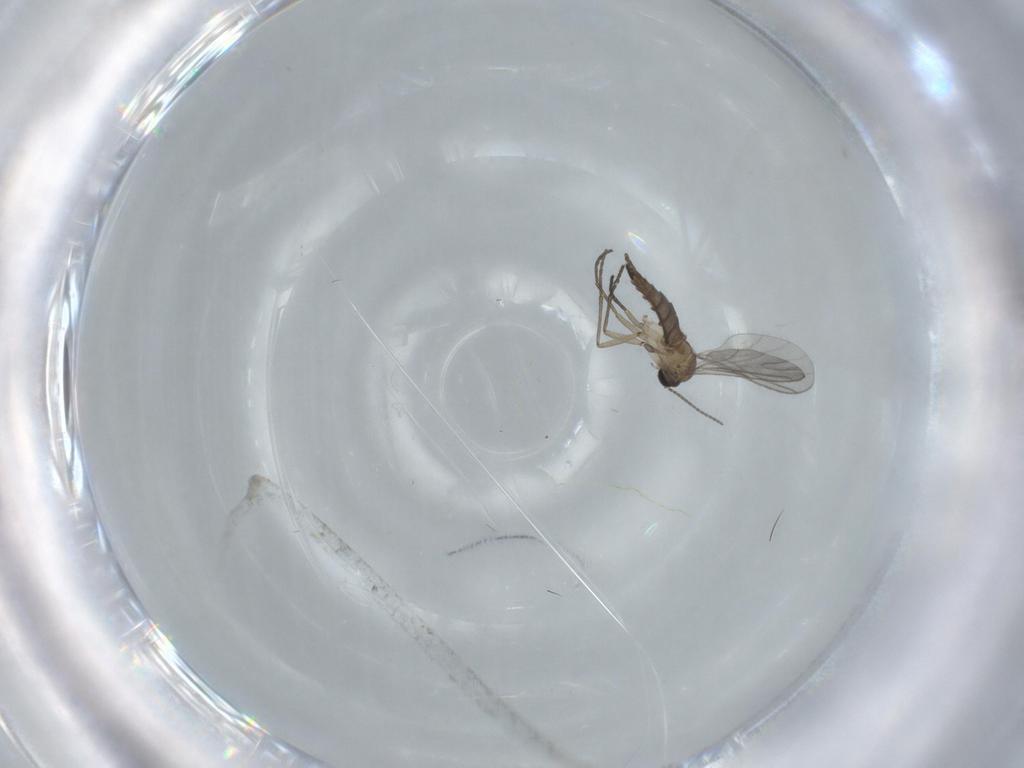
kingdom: Animalia
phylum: Arthropoda
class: Insecta
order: Diptera
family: Sciaridae
